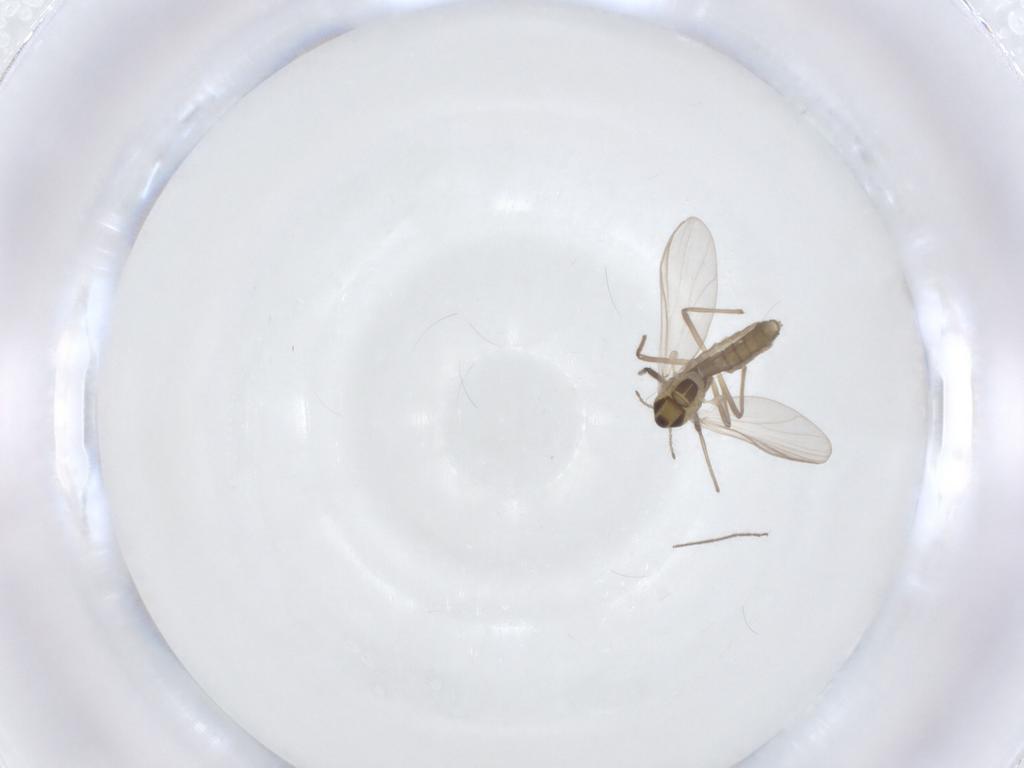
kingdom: Animalia
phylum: Arthropoda
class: Insecta
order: Diptera
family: Chironomidae
